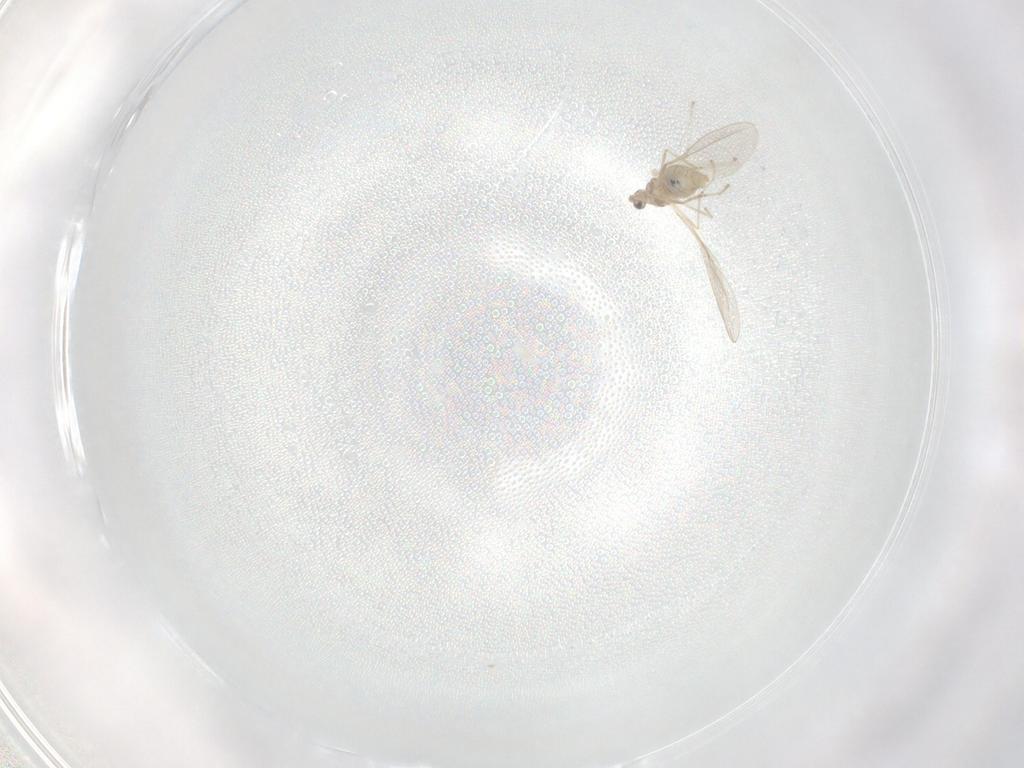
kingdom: Animalia
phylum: Arthropoda
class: Insecta
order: Diptera
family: Cecidomyiidae
